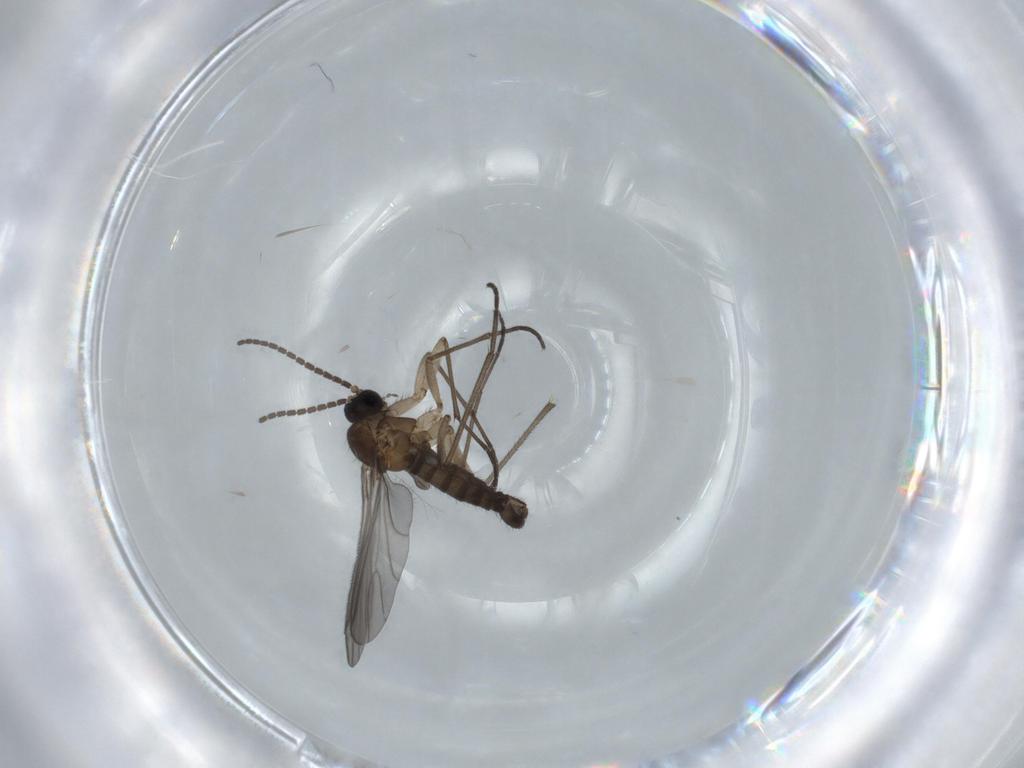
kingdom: Animalia
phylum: Arthropoda
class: Insecta
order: Diptera
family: Sciaridae
